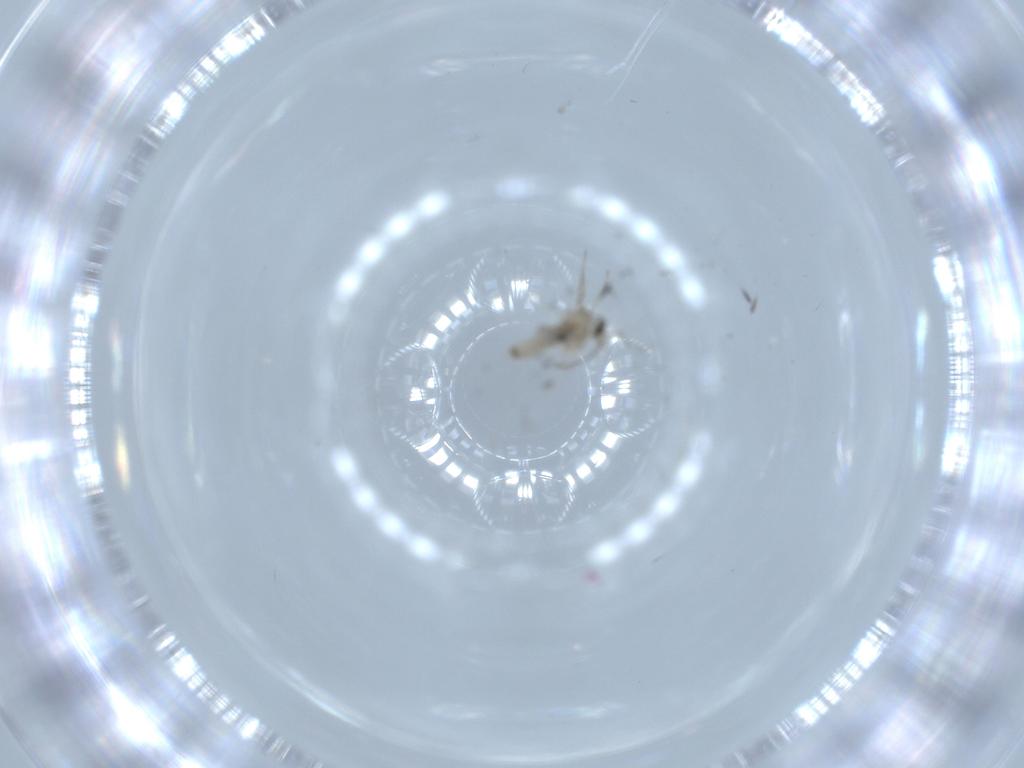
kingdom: Animalia
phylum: Arthropoda
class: Insecta
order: Diptera
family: Cecidomyiidae
